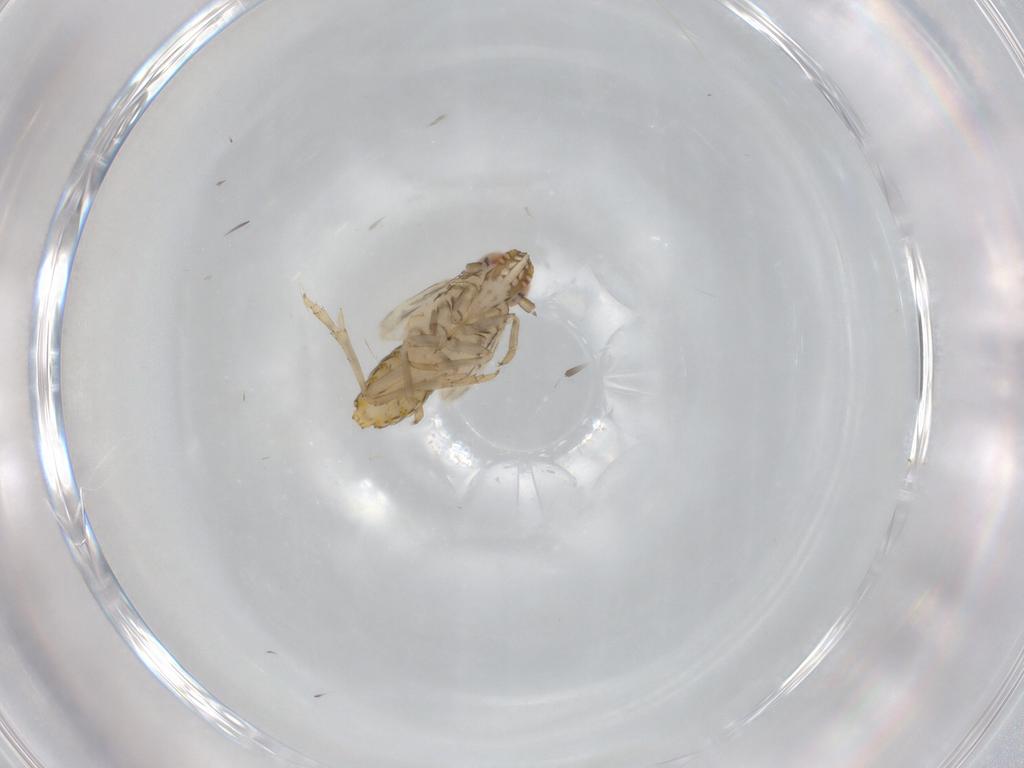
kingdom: Animalia
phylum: Arthropoda
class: Insecta
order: Hemiptera
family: Delphacidae
